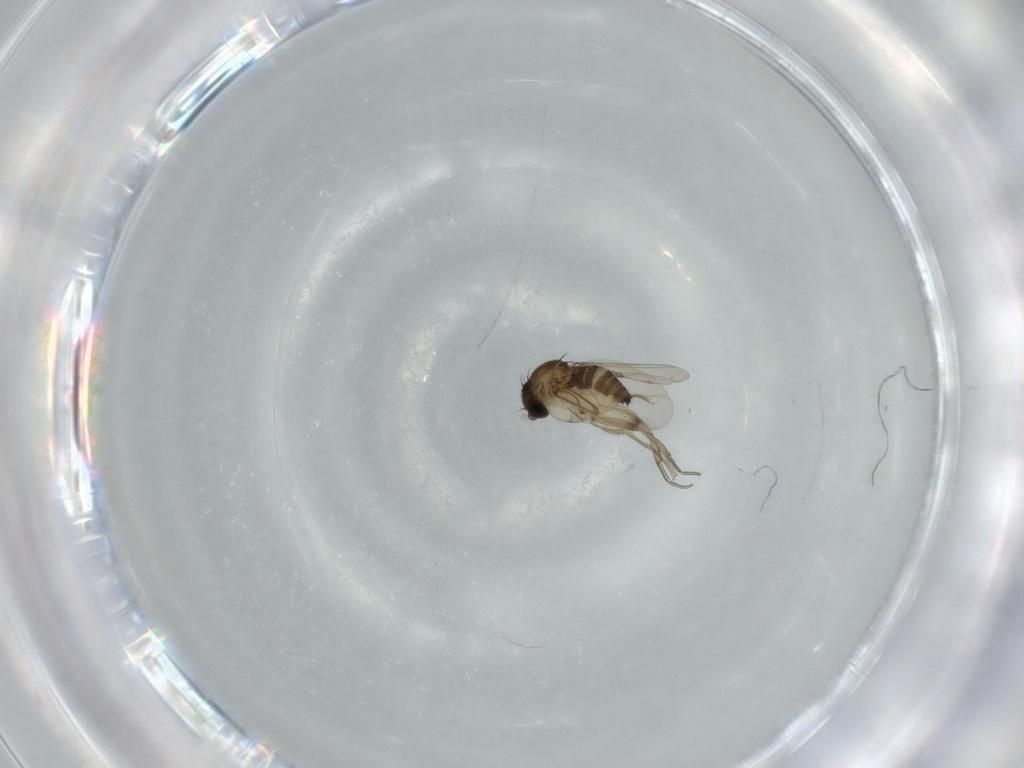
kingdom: Animalia
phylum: Arthropoda
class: Insecta
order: Diptera
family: Phoridae
